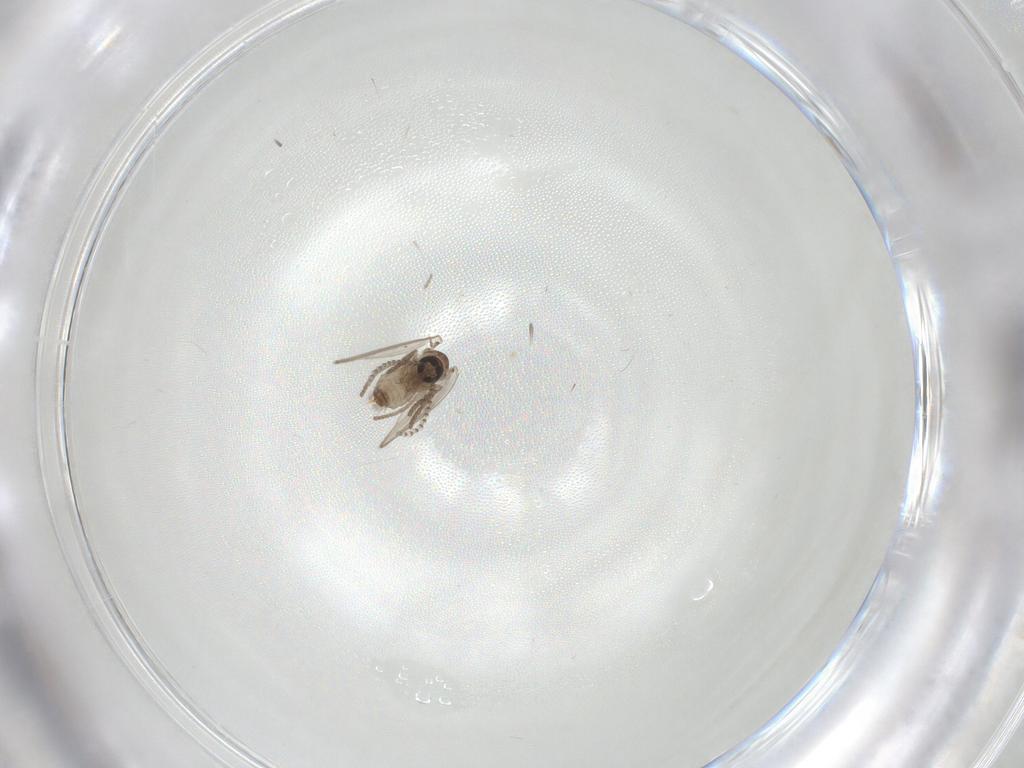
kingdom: Animalia
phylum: Arthropoda
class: Insecta
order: Diptera
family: Psychodidae
